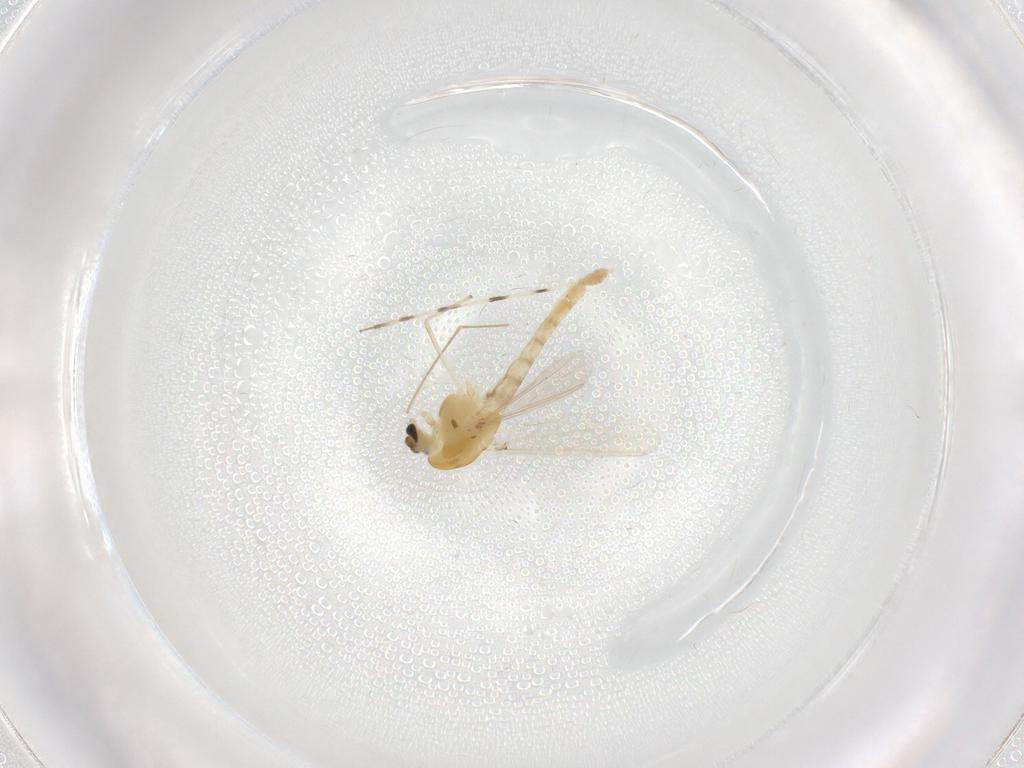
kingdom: Animalia
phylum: Arthropoda
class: Insecta
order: Diptera
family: Chironomidae
